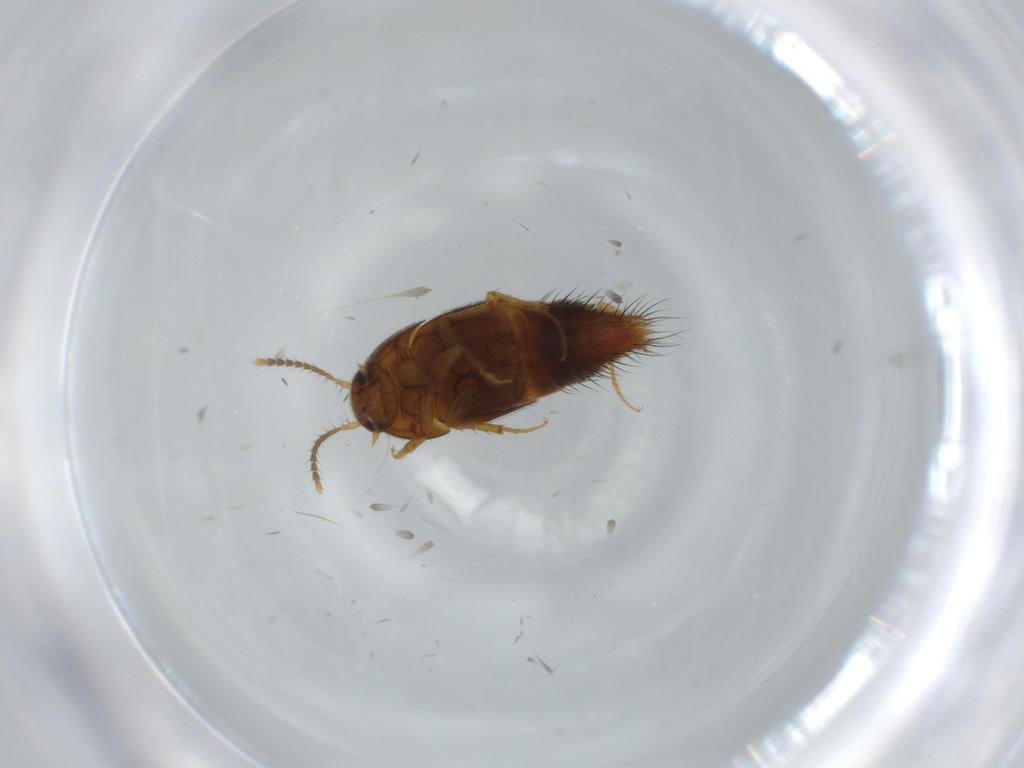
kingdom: Animalia
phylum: Arthropoda
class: Insecta
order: Coleoptera
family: Staphylinidae
